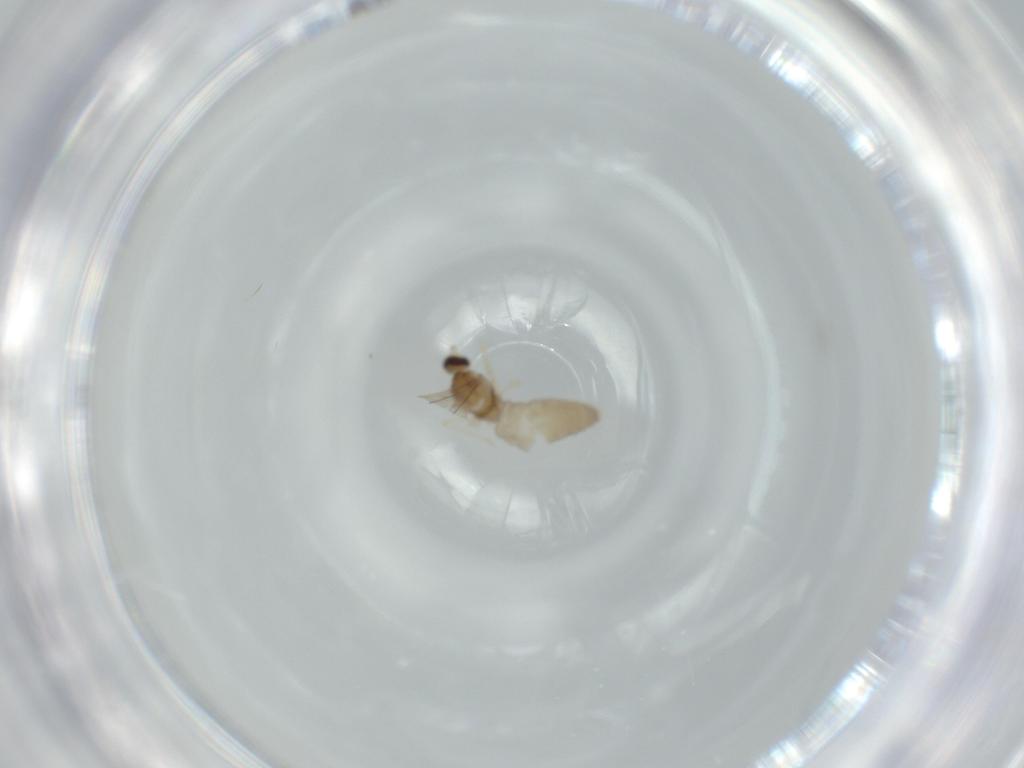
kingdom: Animalia
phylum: Arthropoda
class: Insecta
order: Diptera
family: Cecidomyiidae
